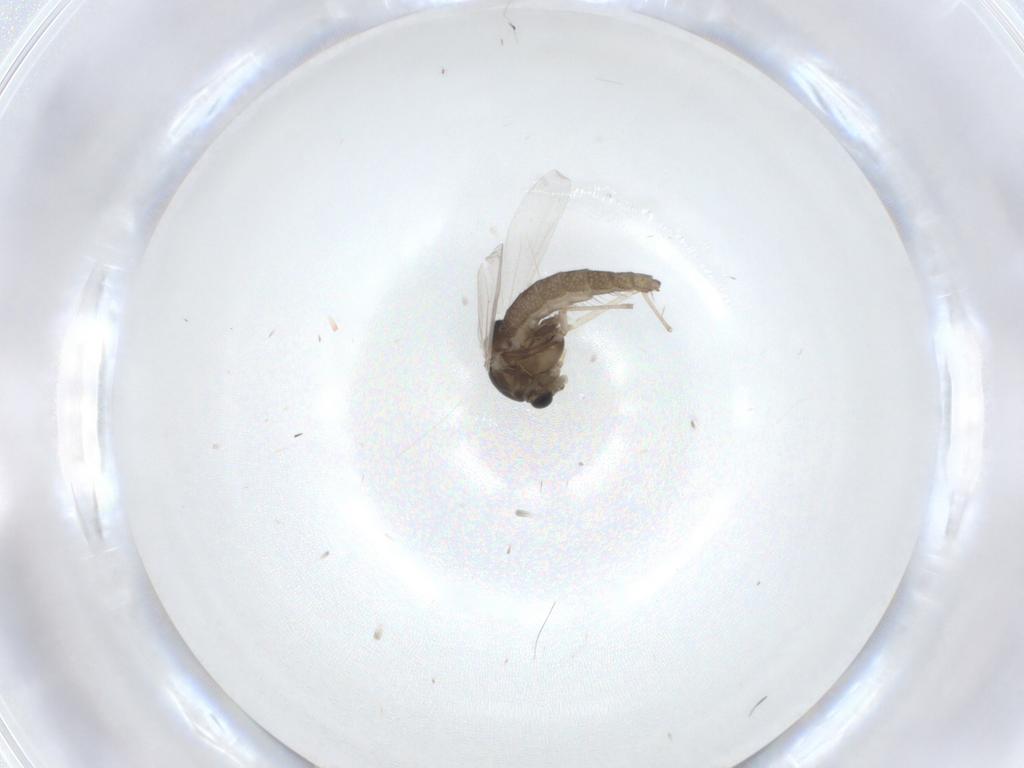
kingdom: Animalia
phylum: Arthropoda
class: Insecta
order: Diptera
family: Chironomidae
